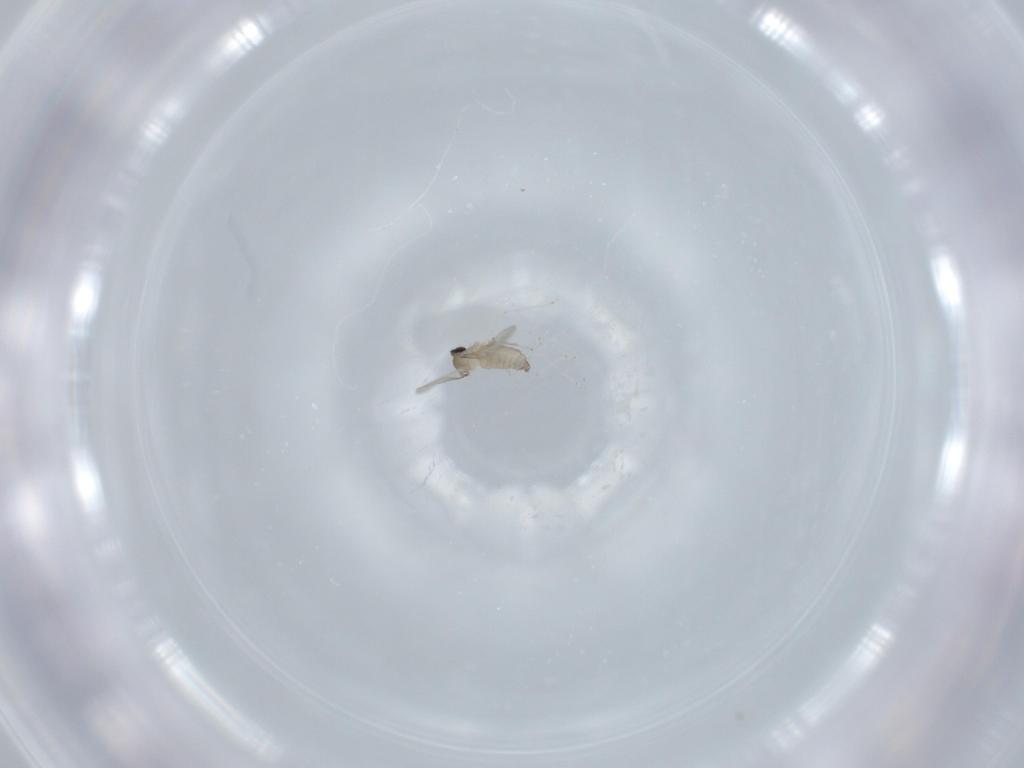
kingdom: Animalia
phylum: Arthropoda
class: Insecta
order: Diptera
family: Cecidomyiidae
